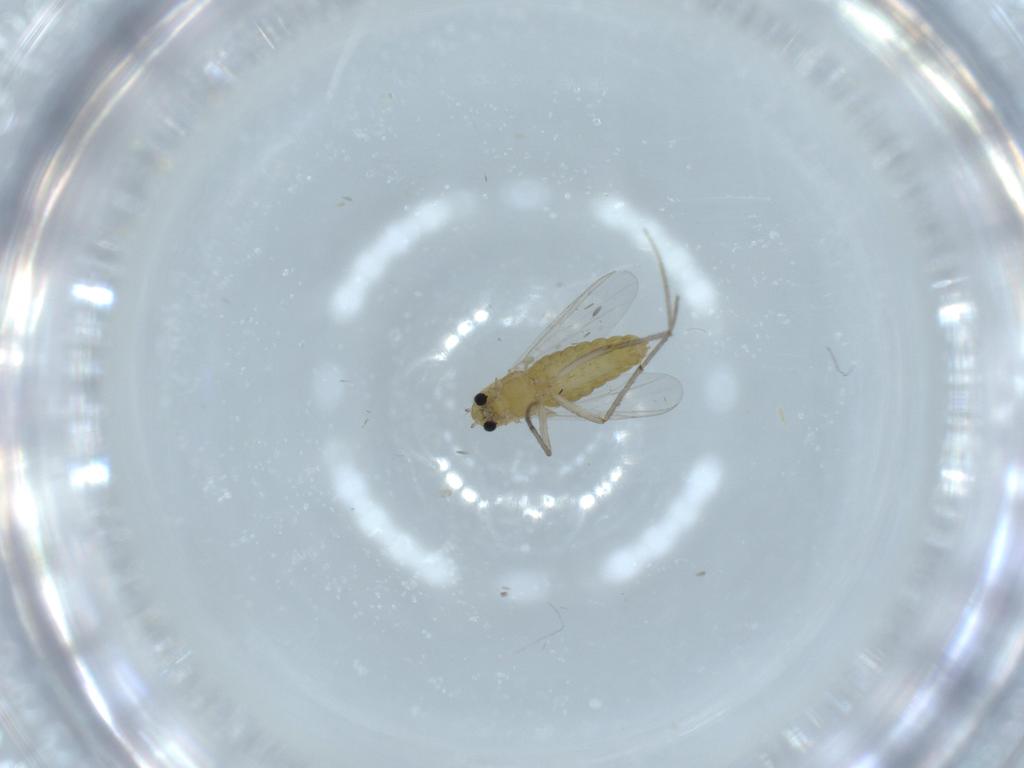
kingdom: Animalia
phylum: Arthropoda
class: Insecta
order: Diptera
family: Chironomidae
